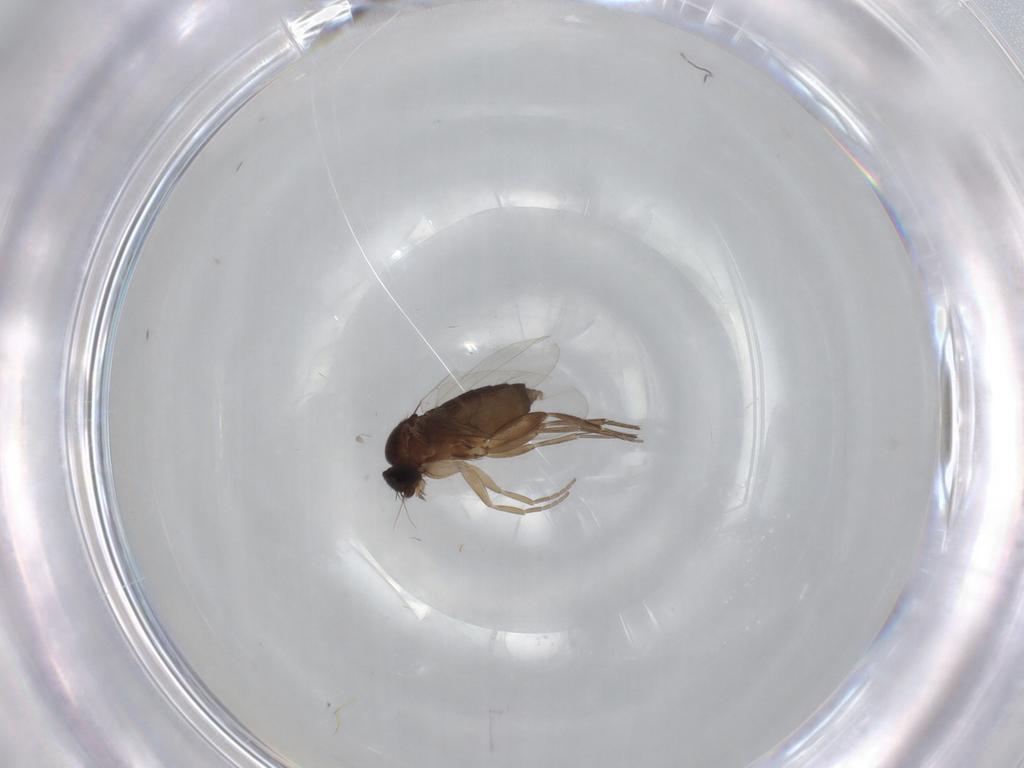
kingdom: Animalia
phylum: Arthropoda
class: Insecta
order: Diptera
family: Phoridae
